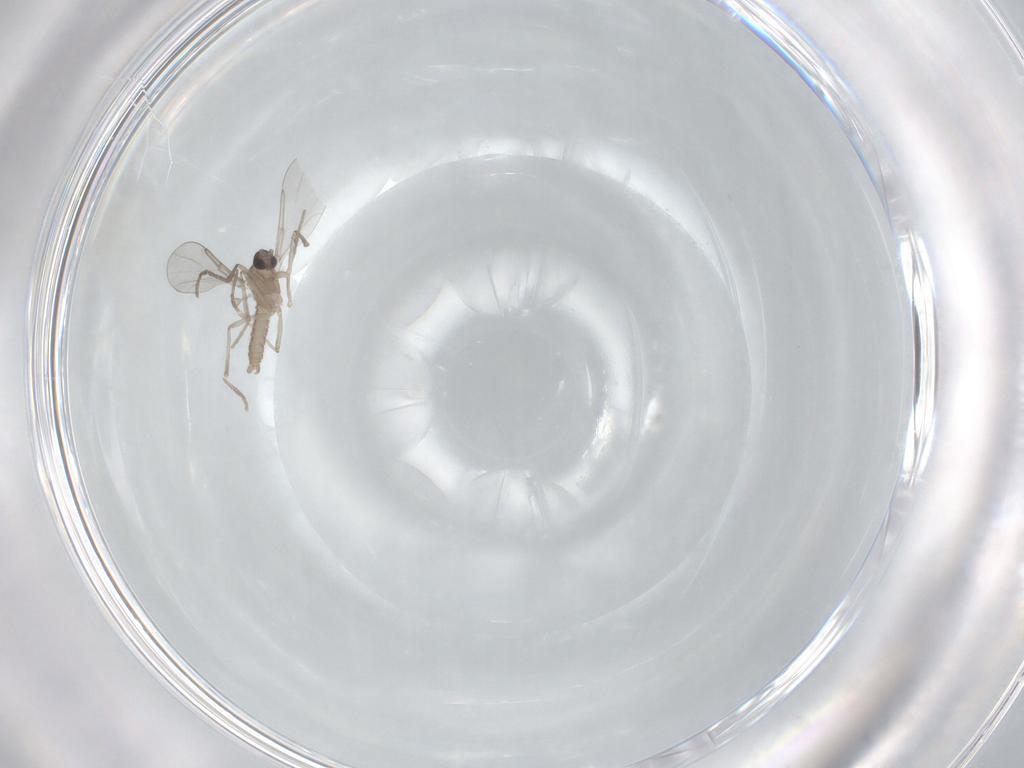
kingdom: Animalia
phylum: Arthropoda
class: Insecta
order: Diptera
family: Cecidomyiidae
